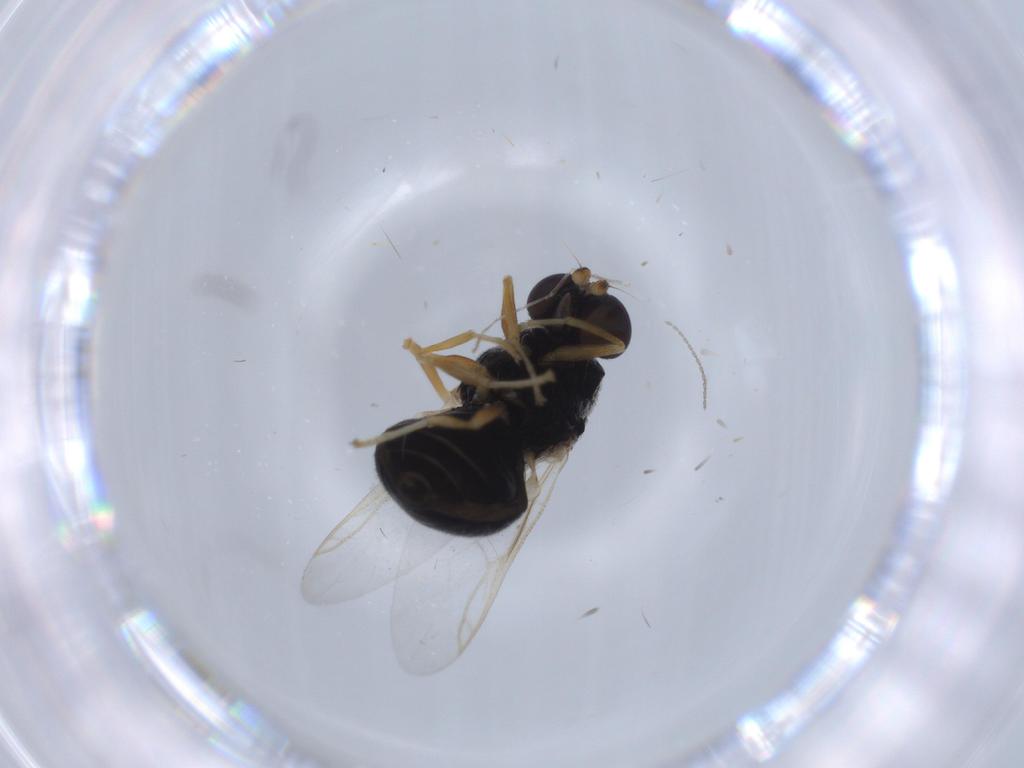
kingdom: Animalia
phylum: Arthropoda
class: Insecta
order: Diptera
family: Stratiomyidae
